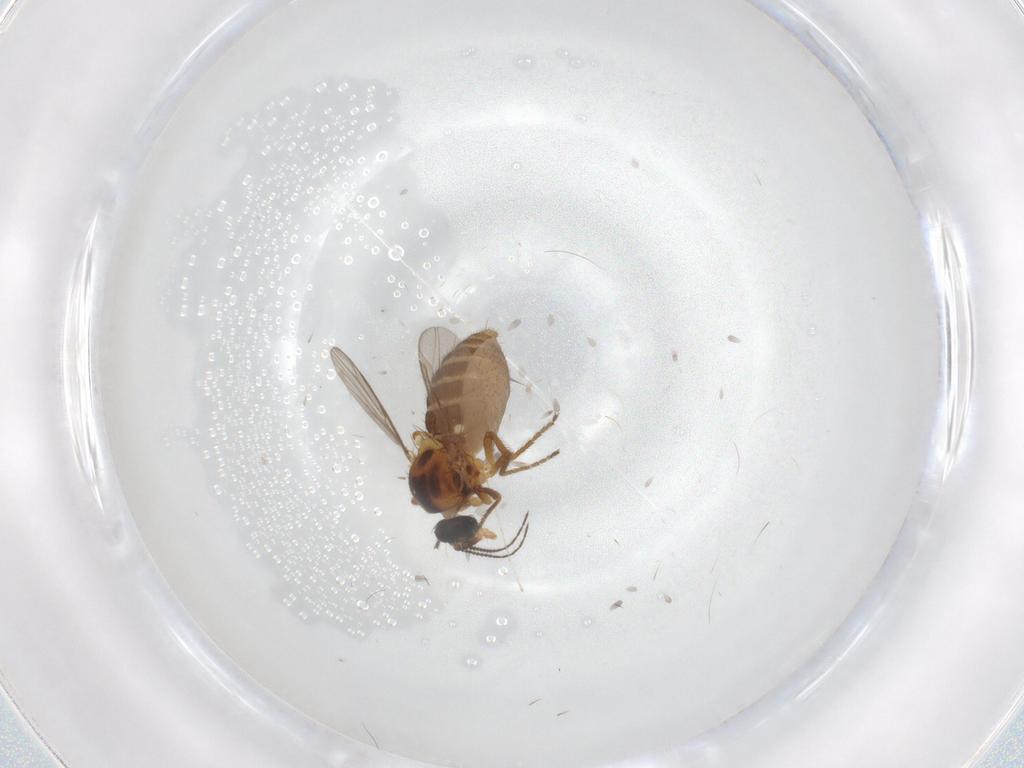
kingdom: Animalia
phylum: Arthropoda
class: Insecta
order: Diptera
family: Ceratopogonidae
